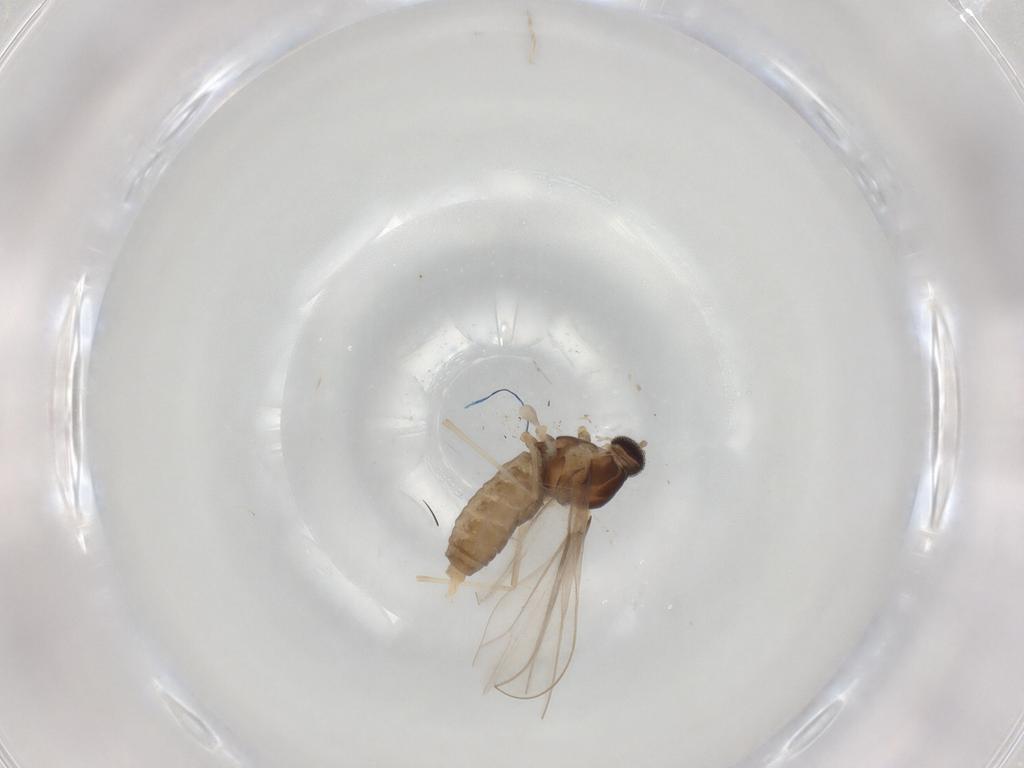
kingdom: Animalia
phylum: Arthropoda
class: Insecta
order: Diptera
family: Cecidomyiidae
